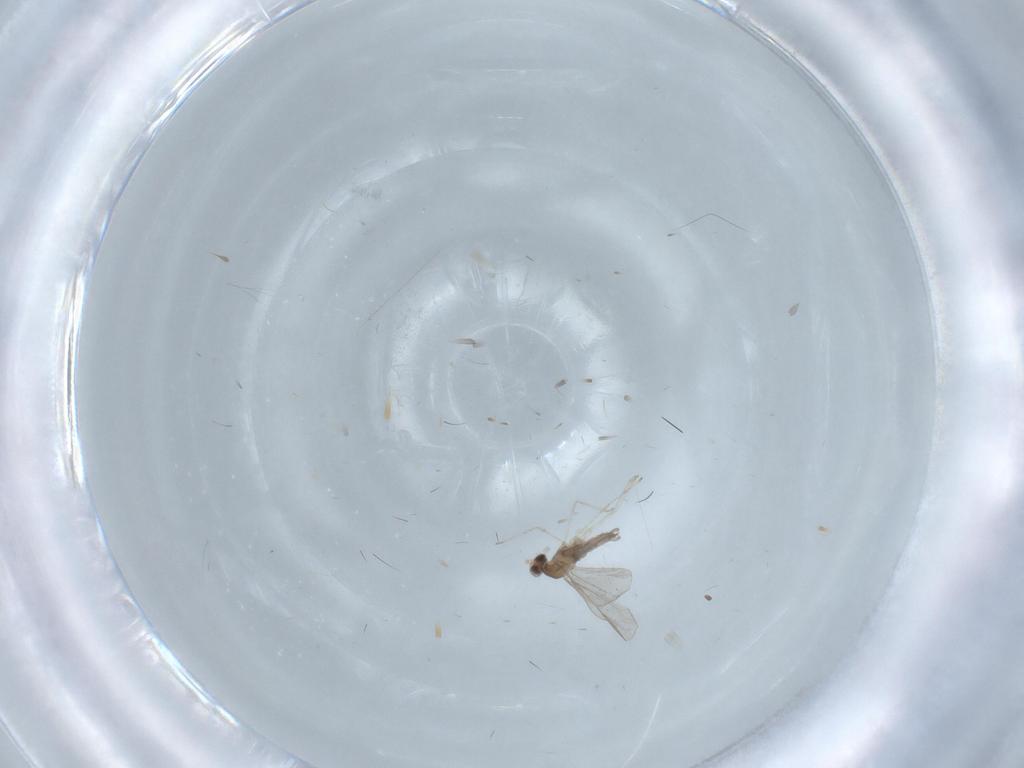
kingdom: Animalia
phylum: Arthropoda
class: Insecta
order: Diptera
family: Cecidomyiidae
